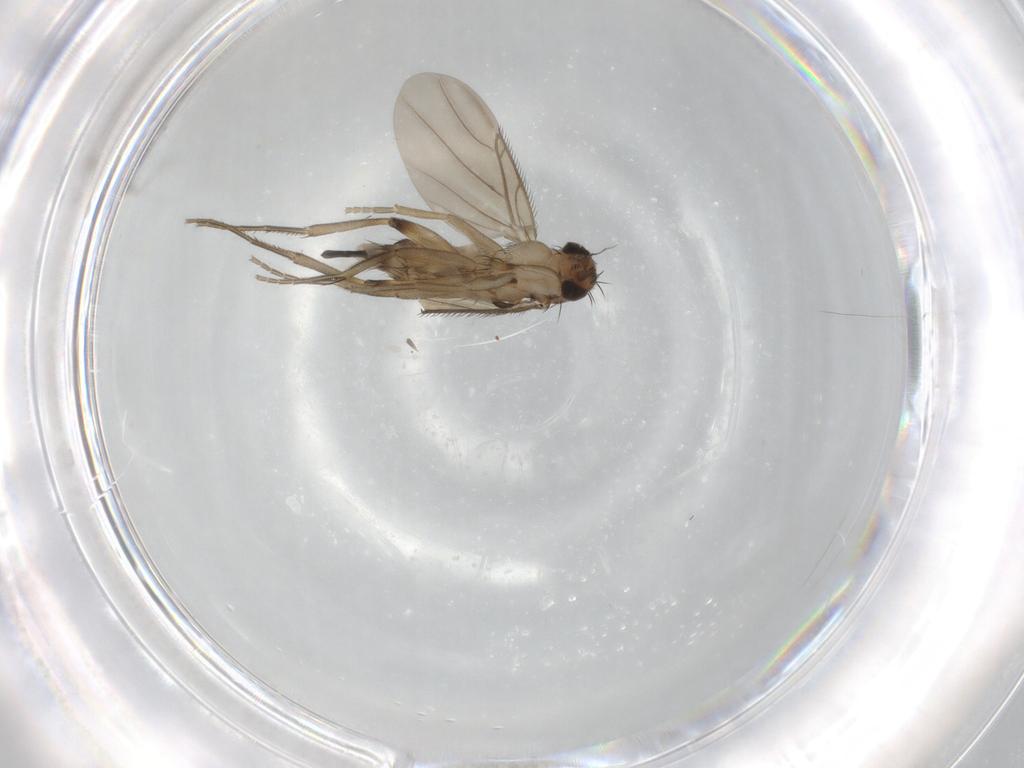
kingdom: Animalia
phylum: Arthropoda
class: Insecta
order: Diptera
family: Phoridae
